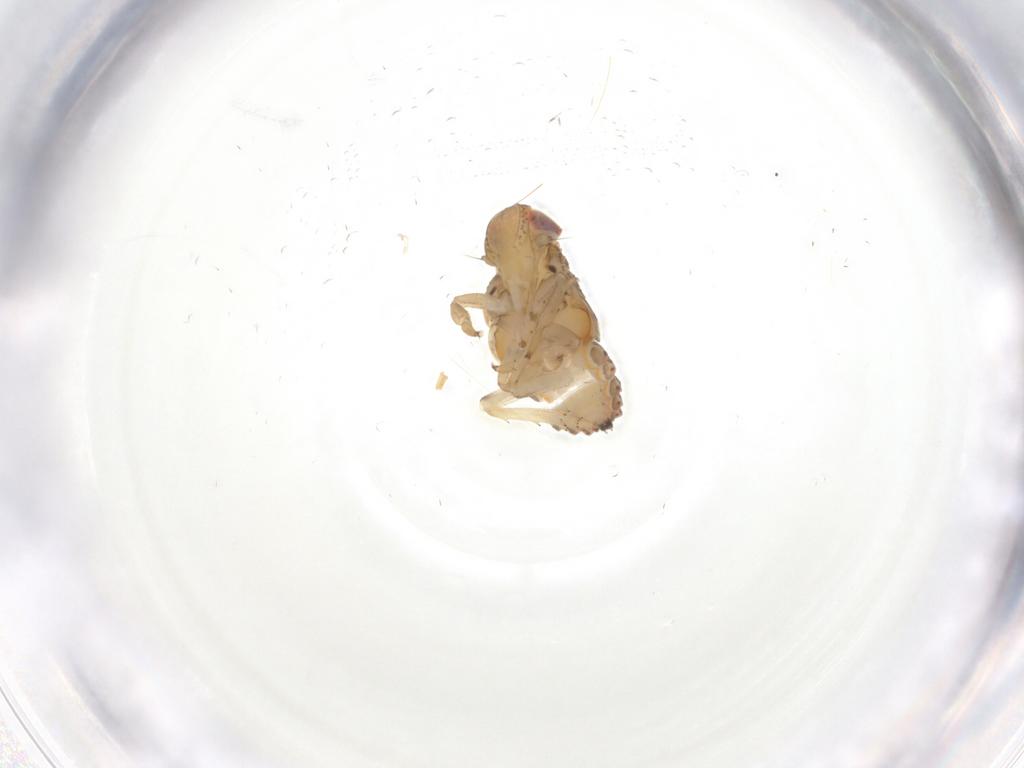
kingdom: Animalia
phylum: Arthropoda
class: Insecta
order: Hemiptera
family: Issidae
